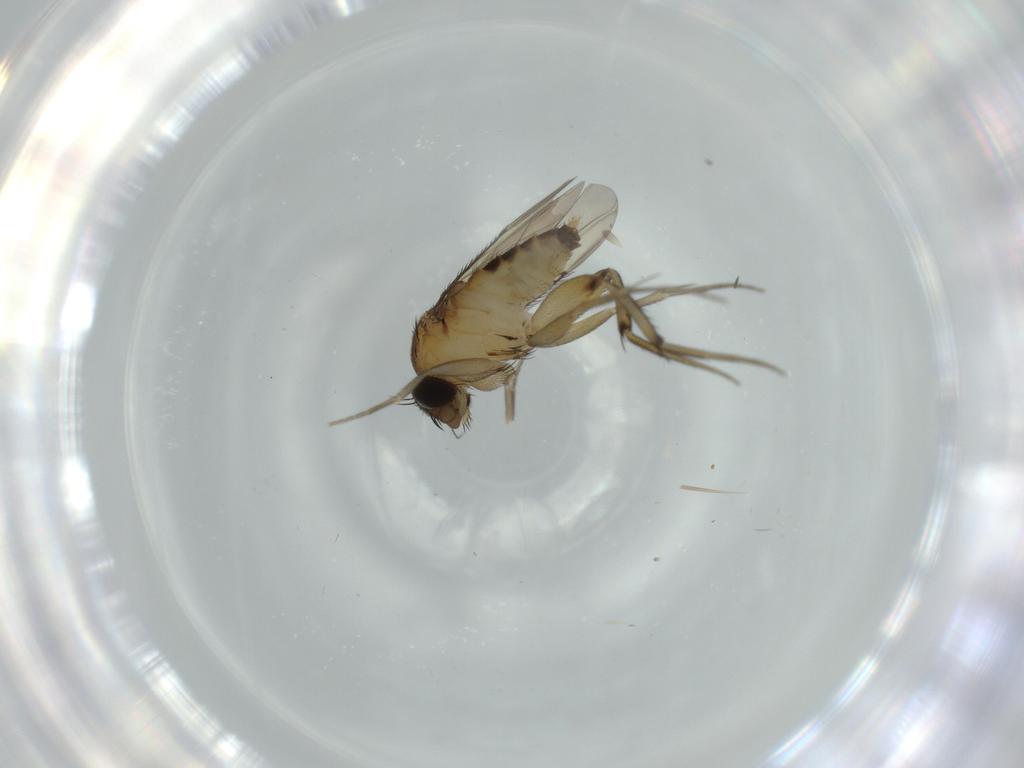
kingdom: Animalia
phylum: Arthropoda
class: Insecta
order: Diptera
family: Phoridae
